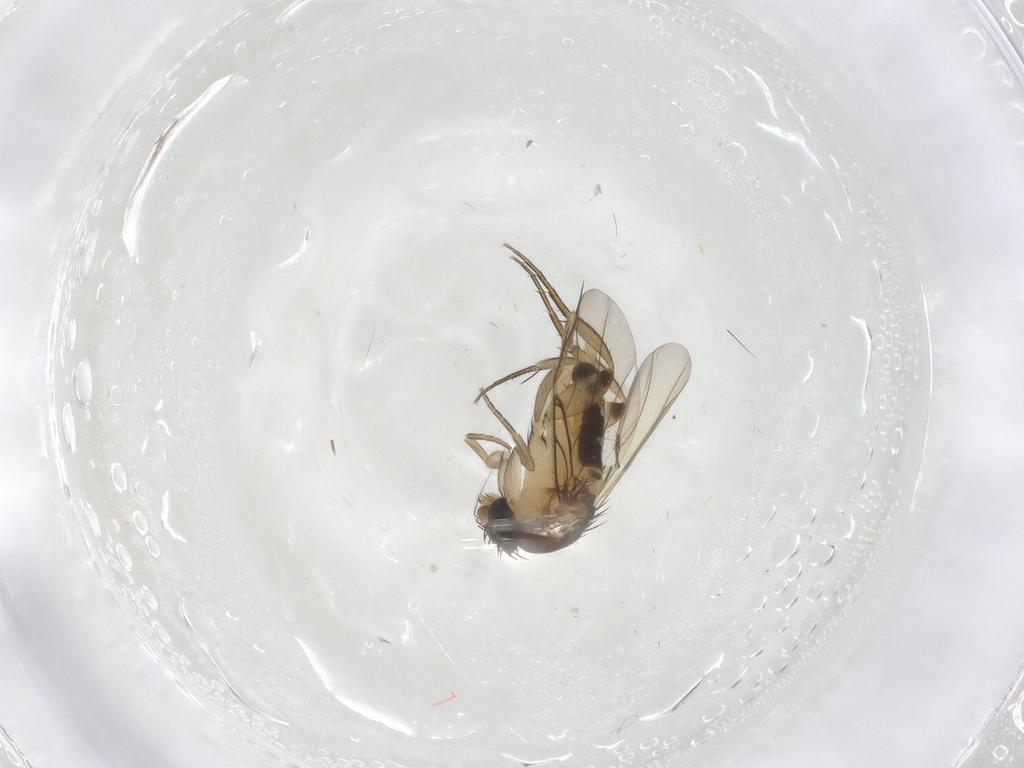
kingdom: Animalia
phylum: Arthropoda
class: Insecta
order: Diptera
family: Phoridae
